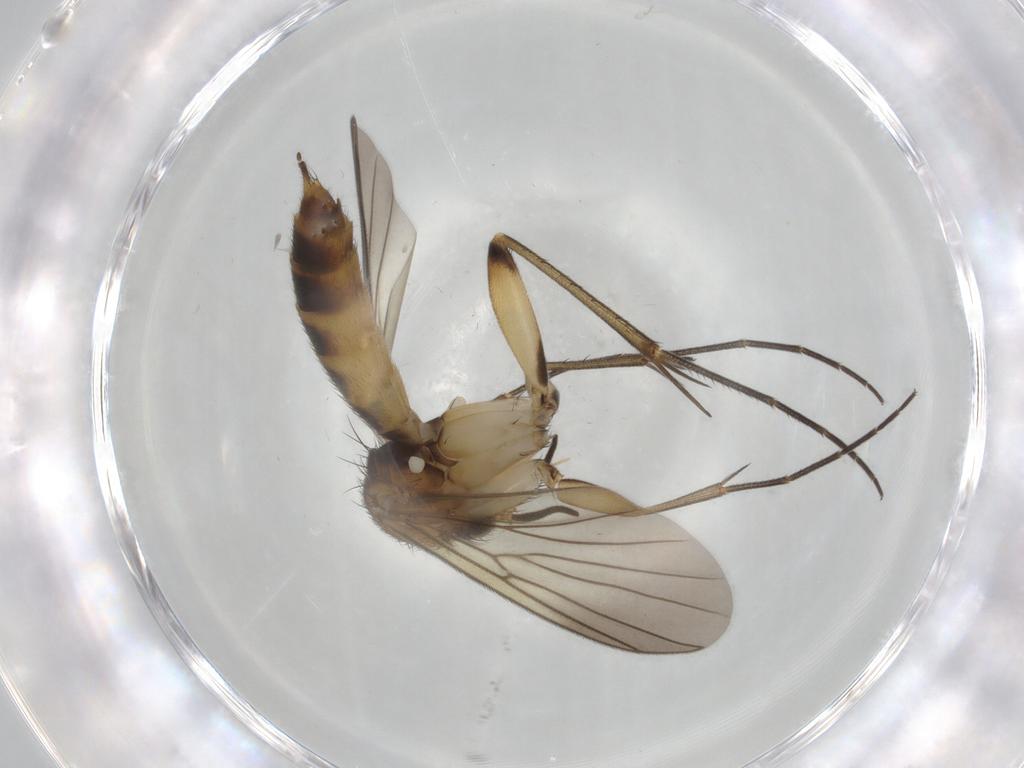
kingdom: Animalia
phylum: Arthropoda
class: Insecta
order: Diptera
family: Mycetophilidae
